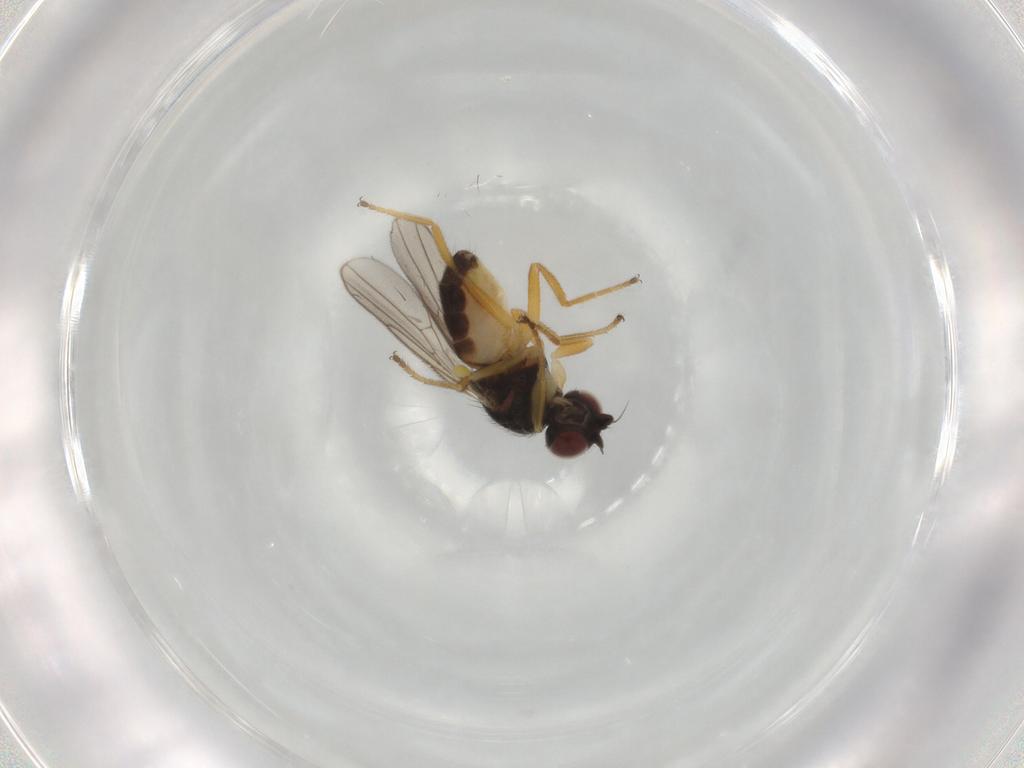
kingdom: Animalia
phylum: Arthropoda
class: Insecta
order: Diptera
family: Chloropidae
